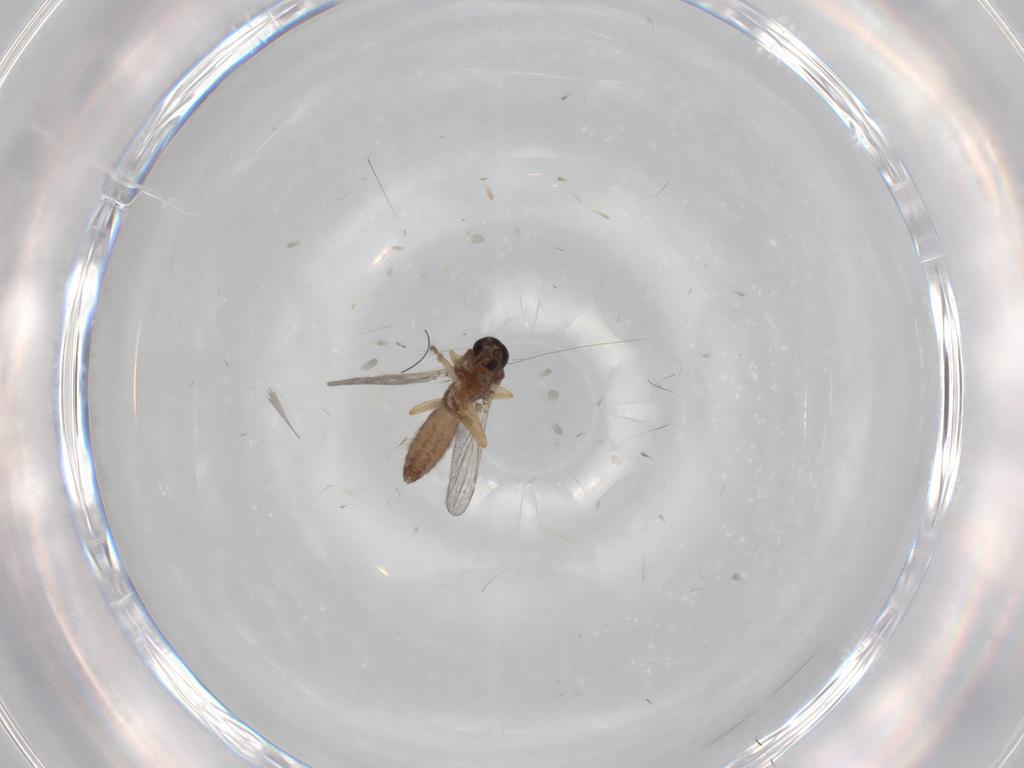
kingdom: Animalia
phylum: Arthropoda
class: Insecta
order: Diptera
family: Ceratopogonidae
